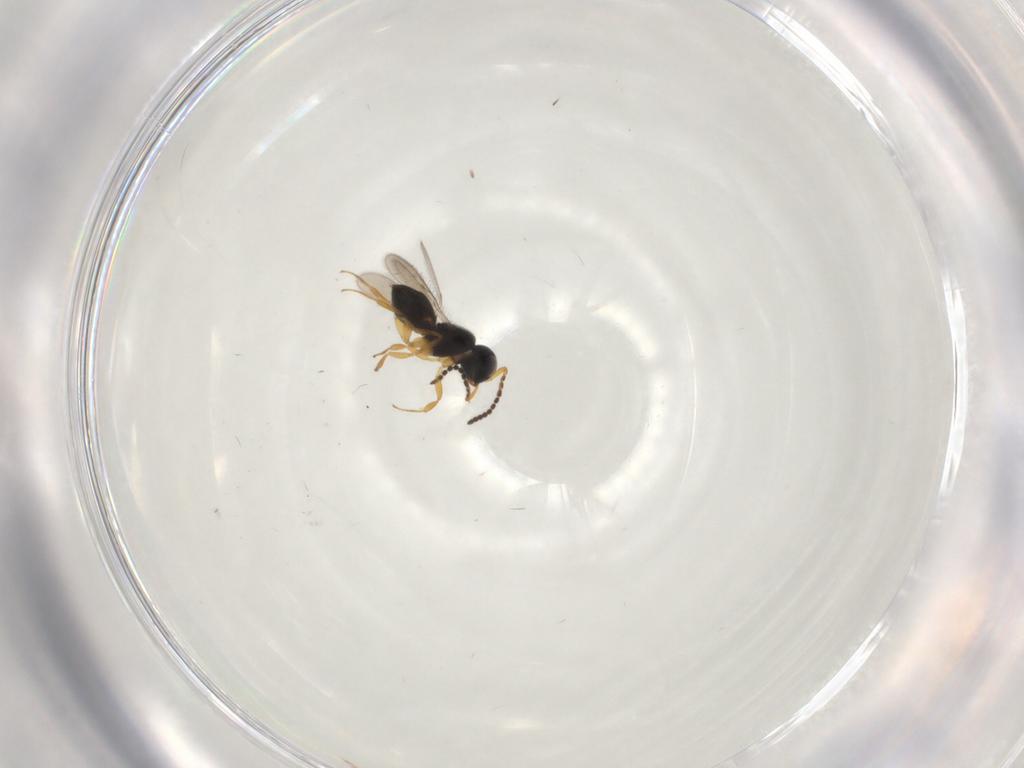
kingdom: Animalia
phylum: Arthropoda
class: Insecta
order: Hymenoptera
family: Scelionidae
